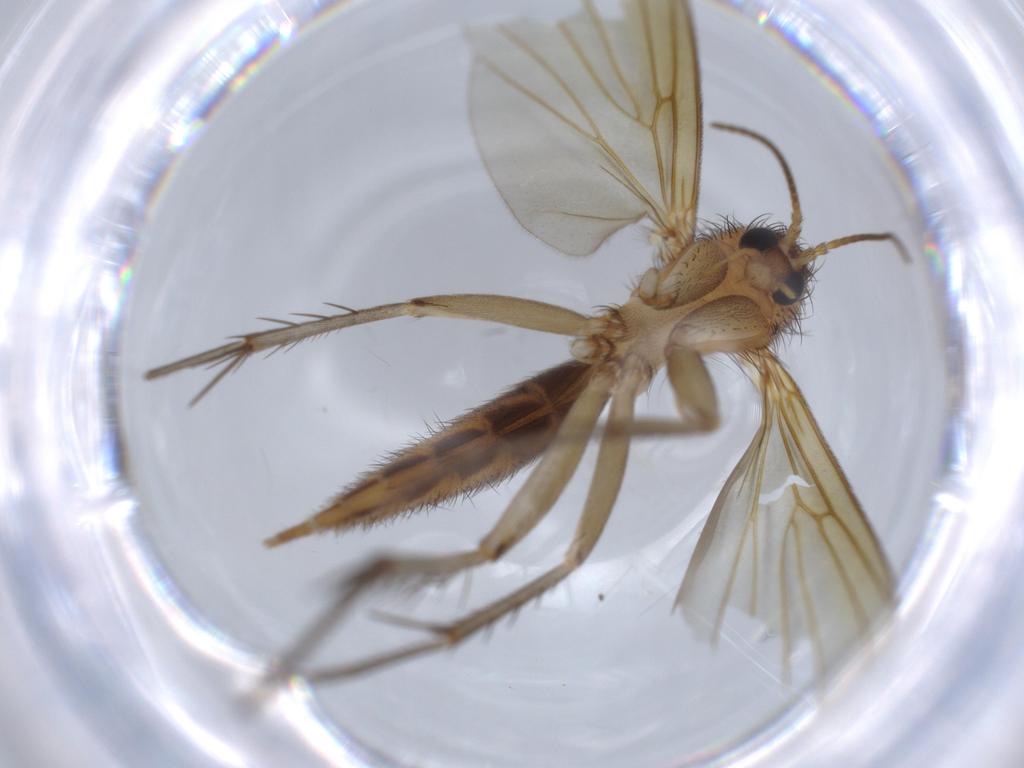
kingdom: Animalia
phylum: Arthropoda
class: Insecta
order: Diptera
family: Mycetophilidae
